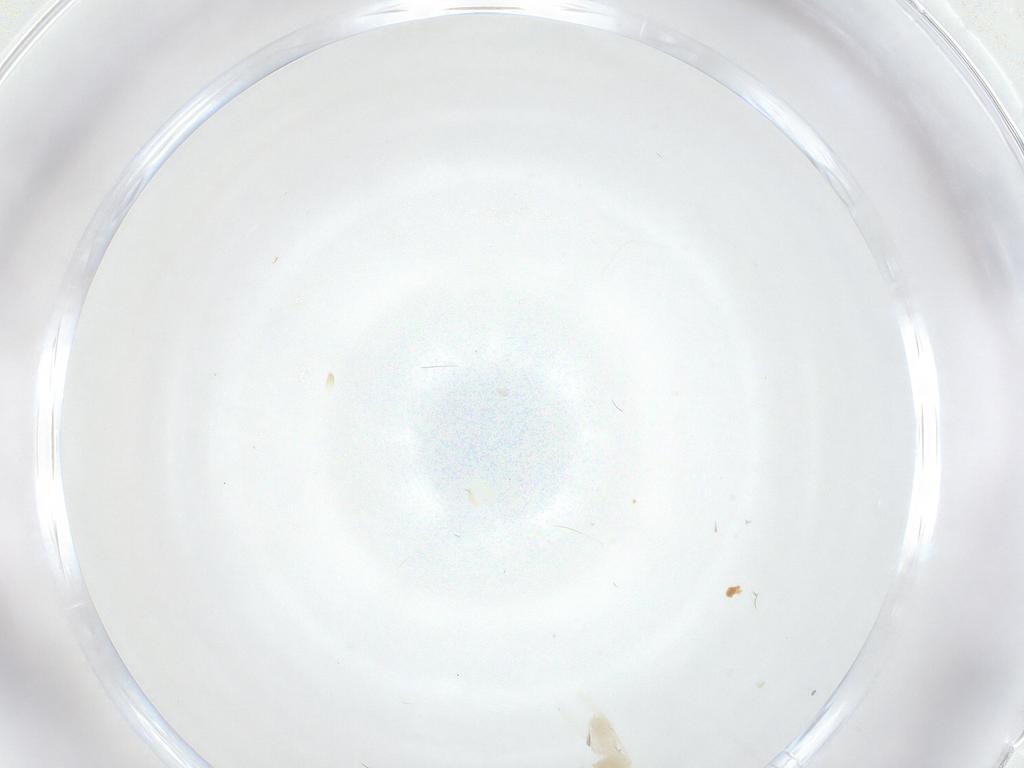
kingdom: Animalia
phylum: Arthropoda
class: Insecta
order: Diptera
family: Tabanidae
